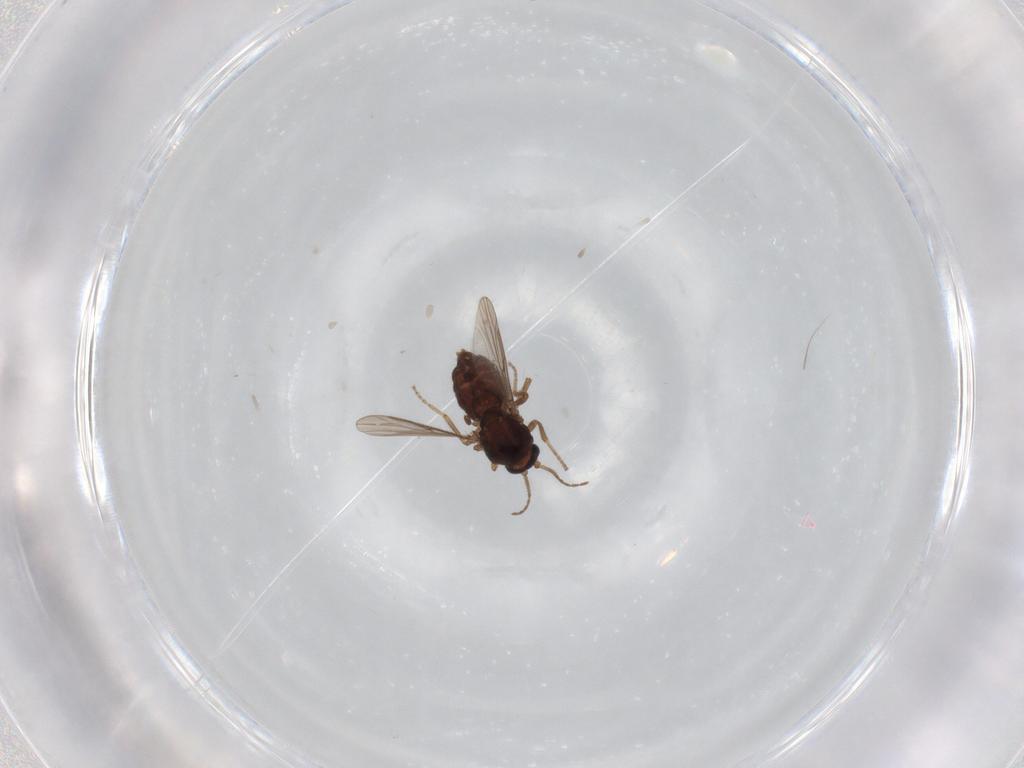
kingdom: Animalia
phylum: Arthropoda
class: Insecta
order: Diptera
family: Ceratopogonidae
